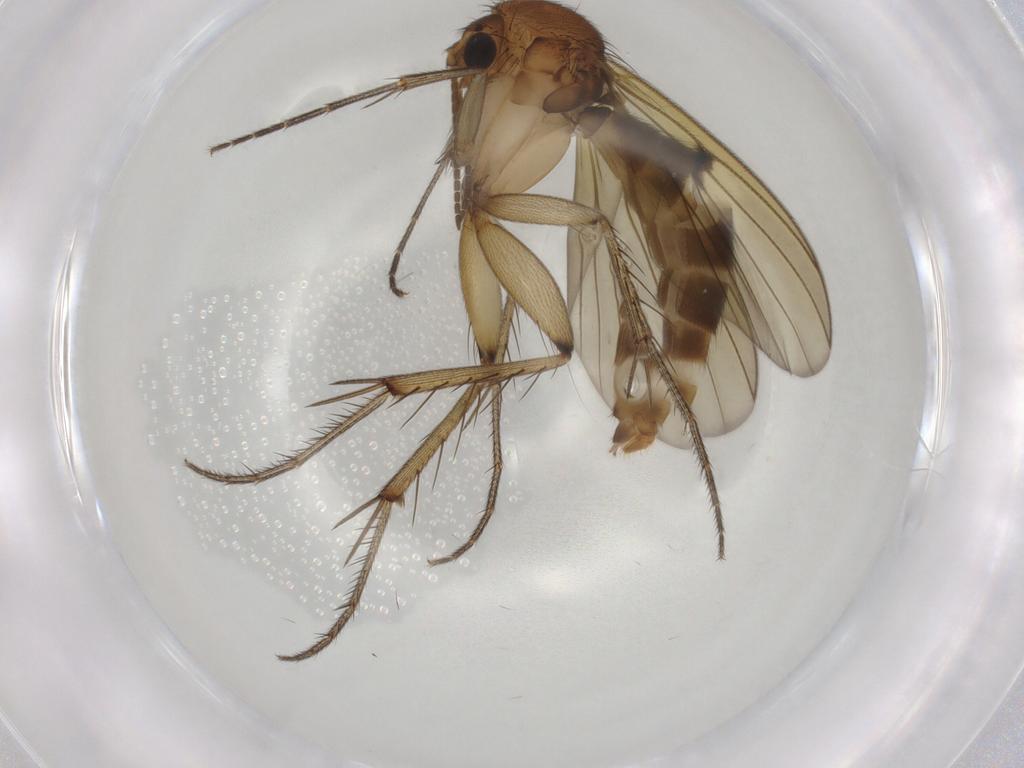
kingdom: Animalia
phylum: Arthropoda
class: Insecta
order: Diptera
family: Mycetophilidae
